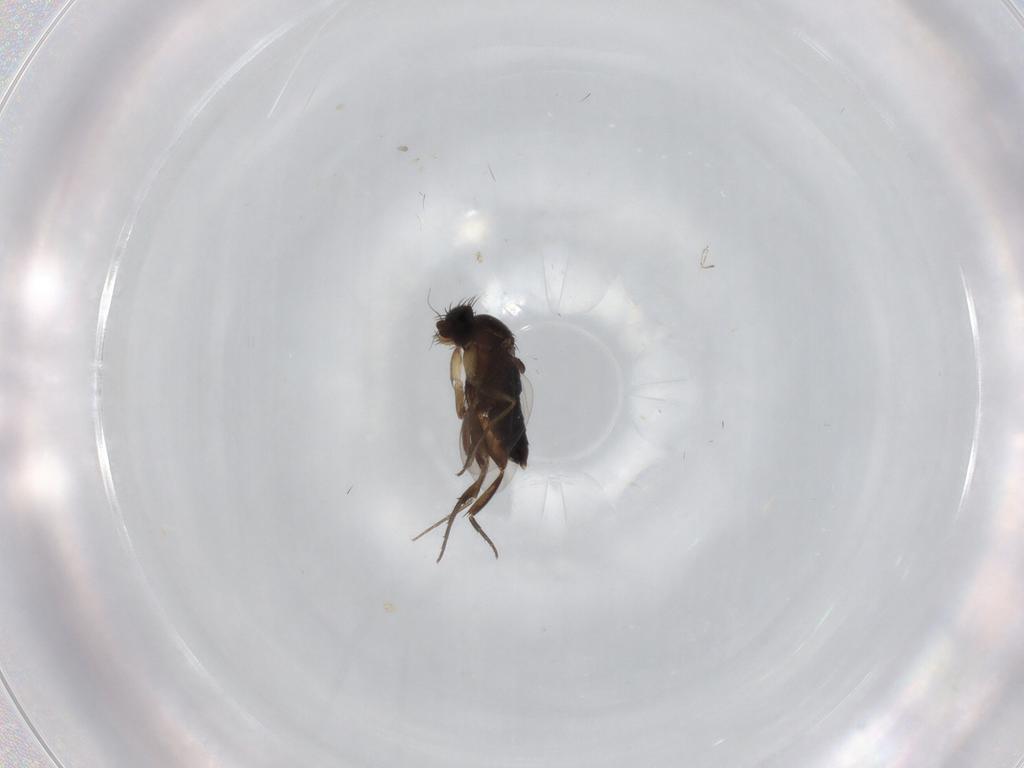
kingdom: Animalia
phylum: Arthropoda
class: Insecta
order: Diptera
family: Phoridae
